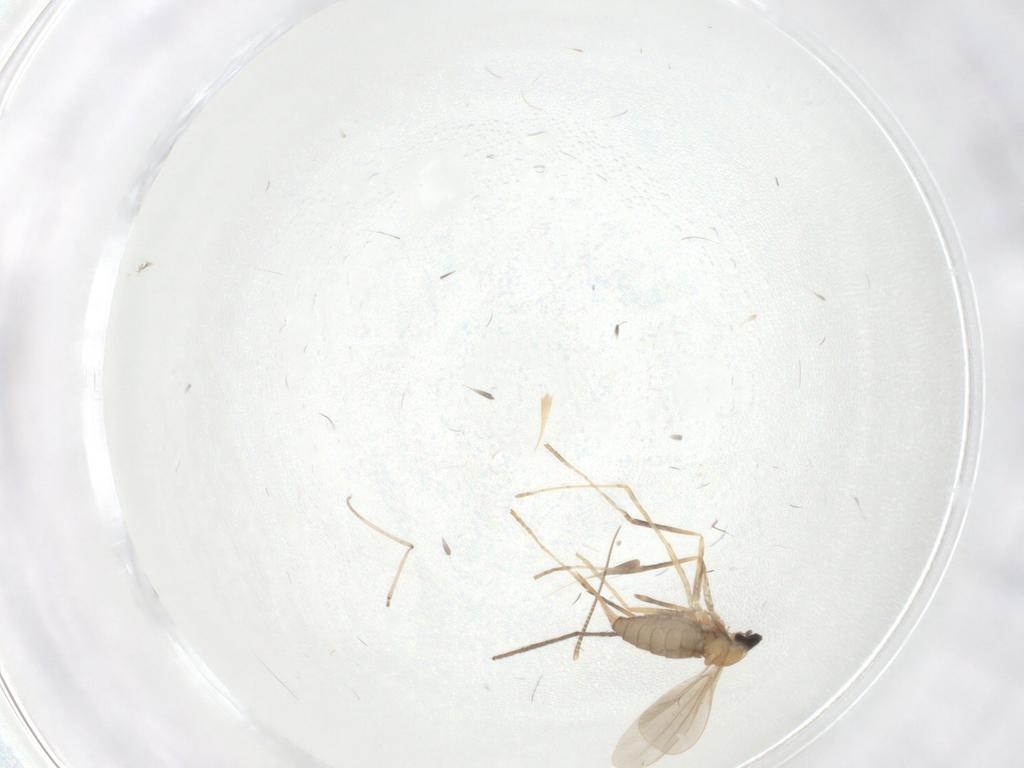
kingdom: Animalia
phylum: Arthropoda
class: Insecta
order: Diptera
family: Cecidomyiidae
